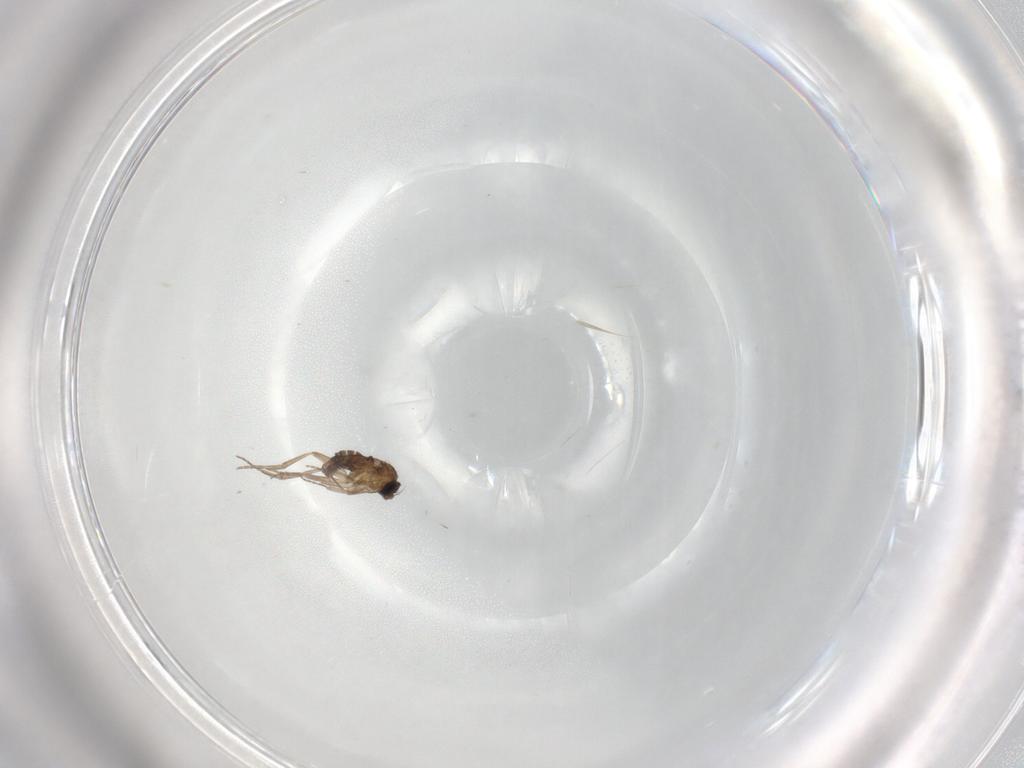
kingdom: Animalia
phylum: Arthropoda
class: Insecta
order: Diptera
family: Phoridae
